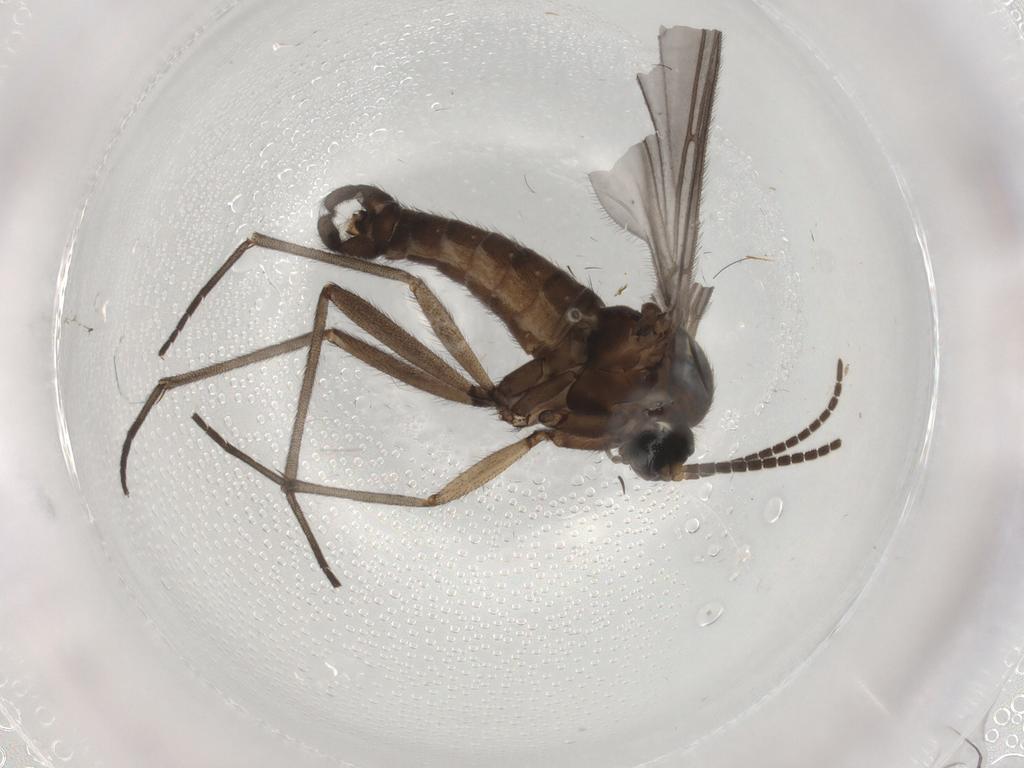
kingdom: Animalia
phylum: Arthropoda
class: Insecta
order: Diptera
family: Phoridae
